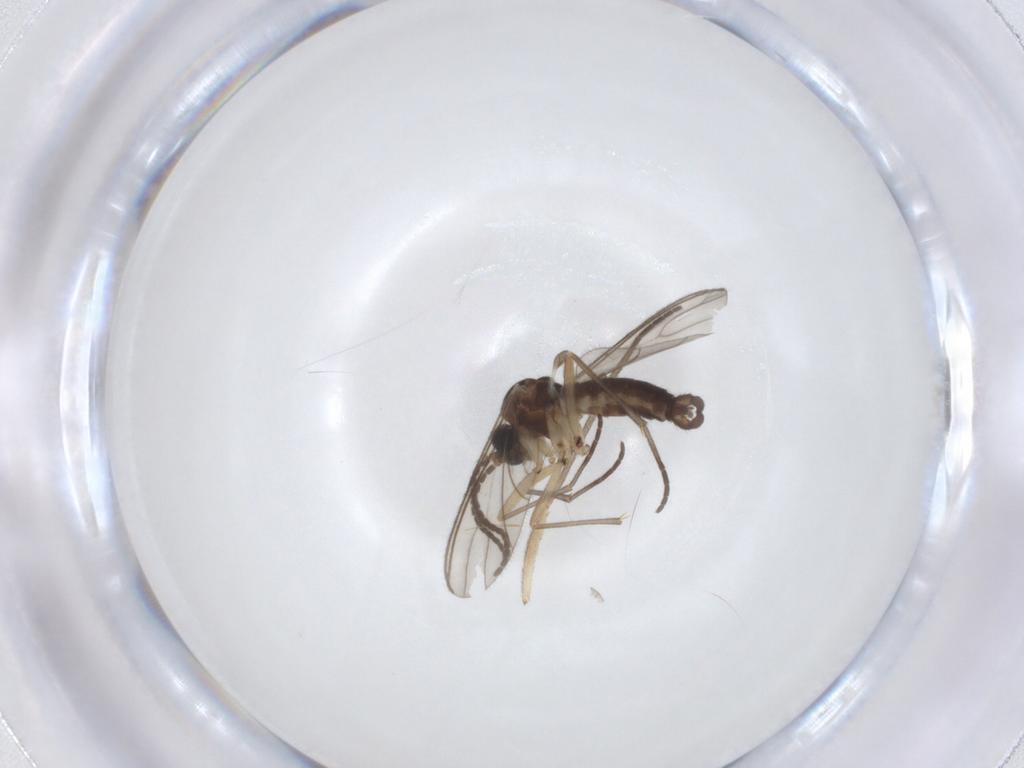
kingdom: Animalia
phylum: Arthropoda
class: Insecta
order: Diptera
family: Sciaridae
